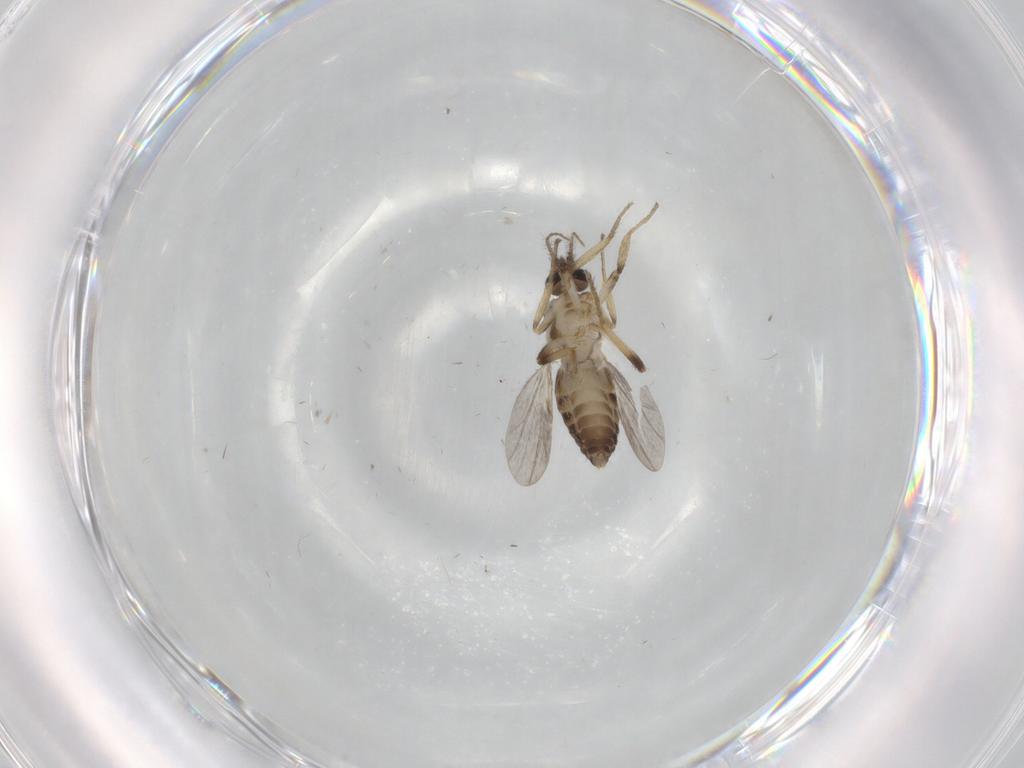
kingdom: Animalia
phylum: Arthropoda
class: Insecta
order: Diptera
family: Ceratopogonidae
